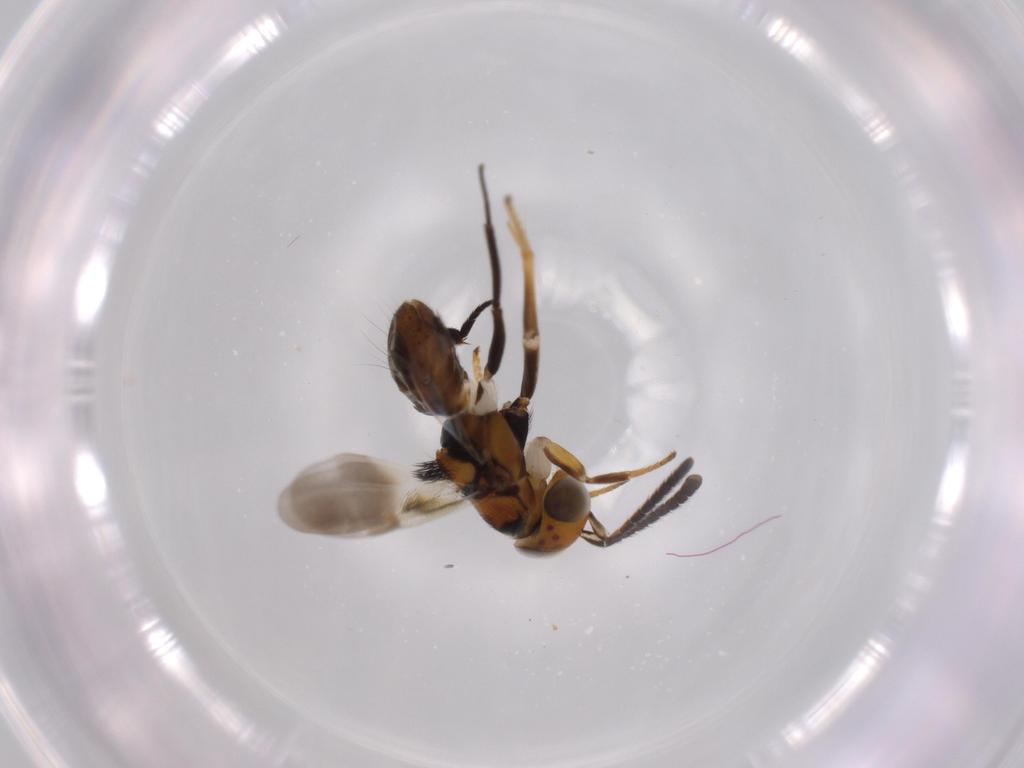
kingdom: Animalia
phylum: Arthropoda
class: Insecta
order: Hymenoptera
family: Encyrtidae
